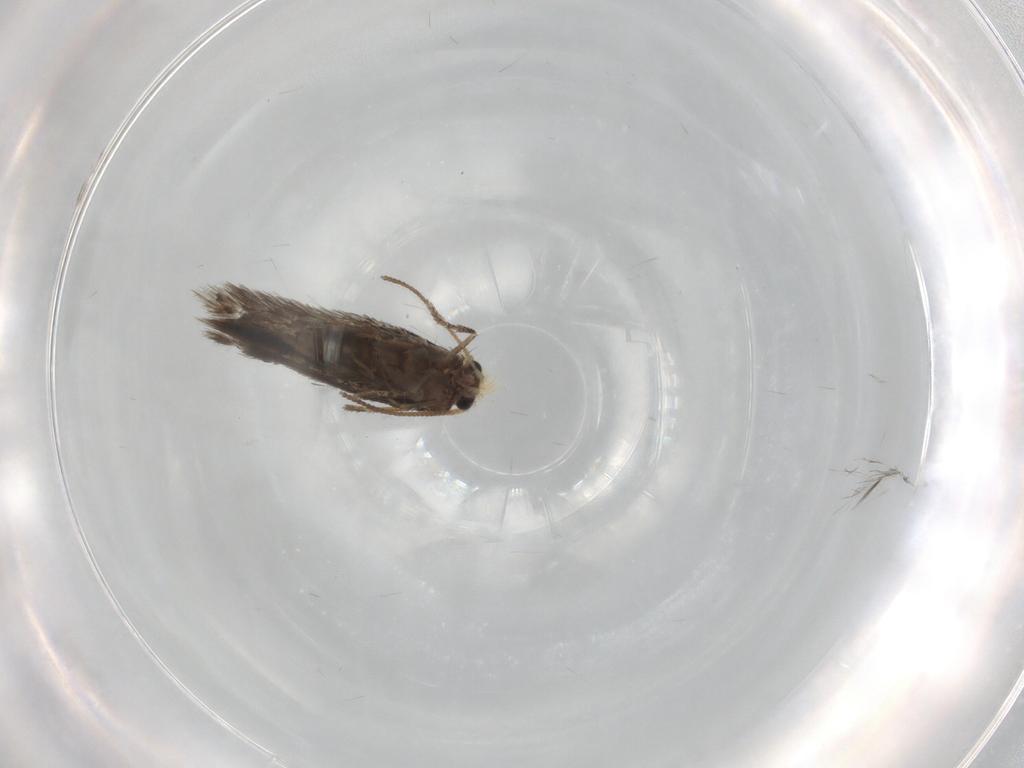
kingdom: Animalia
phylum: Arthropoda
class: Insecta
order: Lepidoptera
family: Nepticulidae
